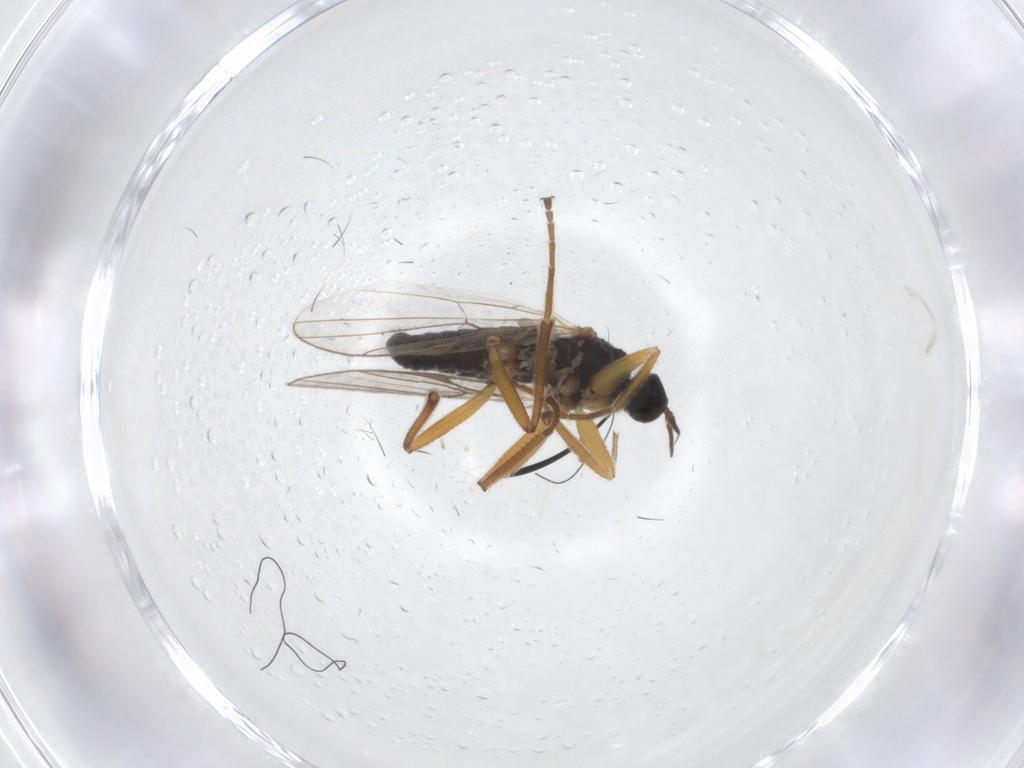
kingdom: Animalia
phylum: Arthropoda
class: Insecta
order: Diptera
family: Hybotidae
